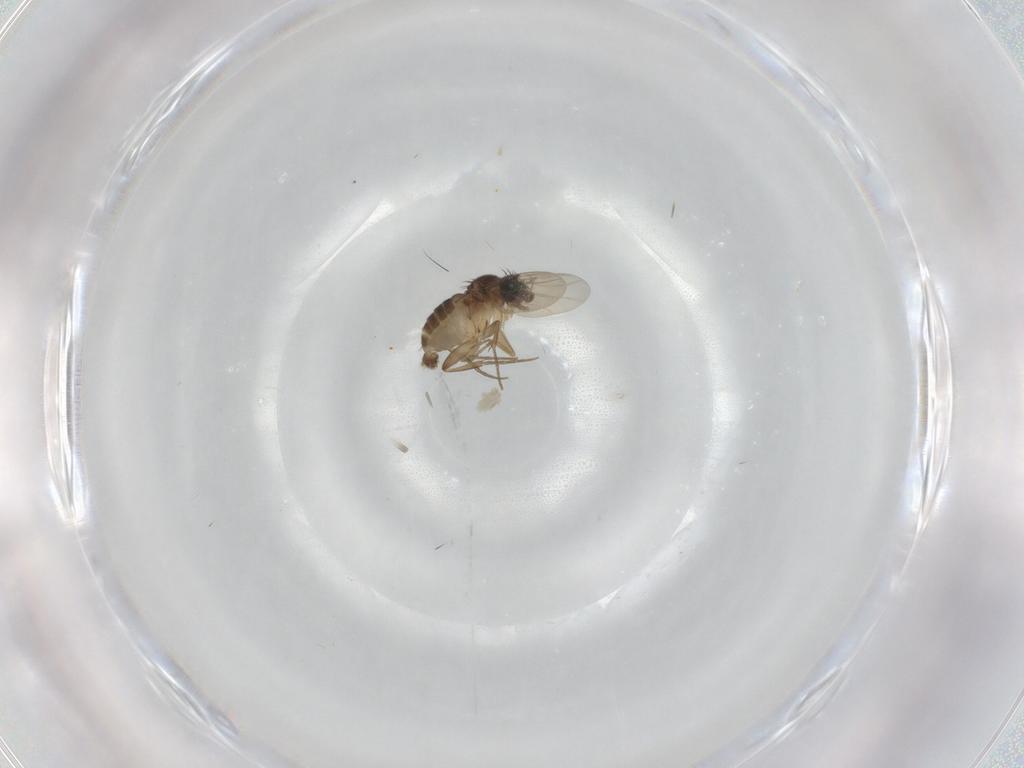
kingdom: Animalia
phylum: Arthropoda
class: Insecta
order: Diptera
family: Phoridae
